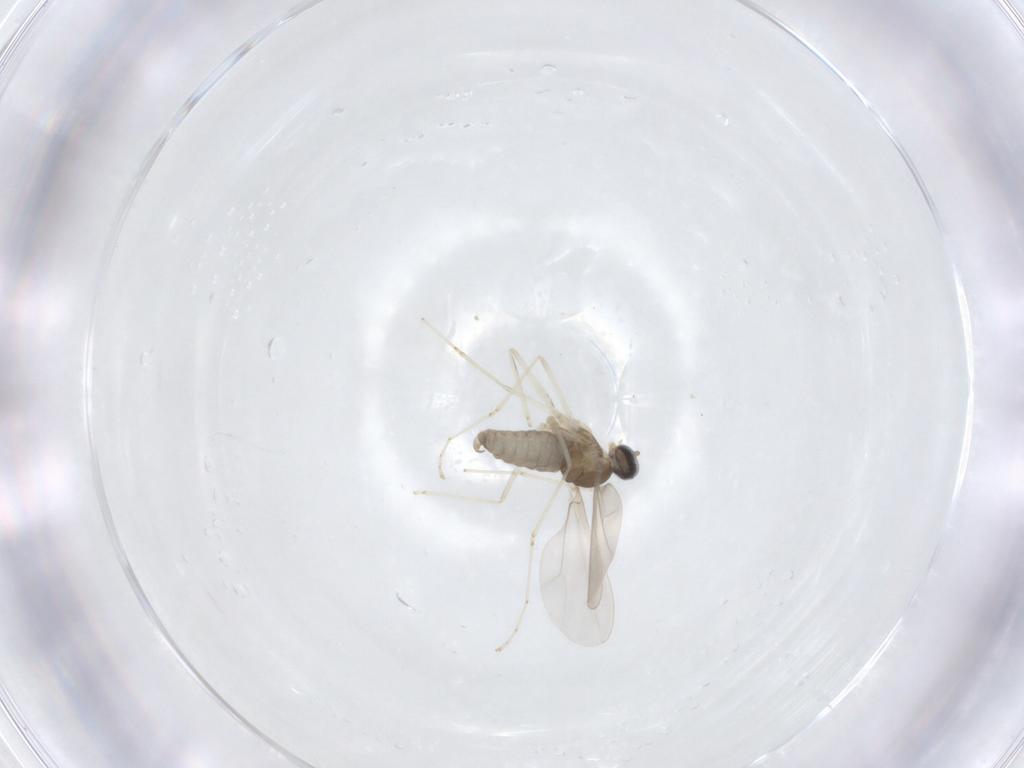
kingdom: Animalia
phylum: Arthropoda
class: Insecta
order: Diptera
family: Cecidomyiidae
